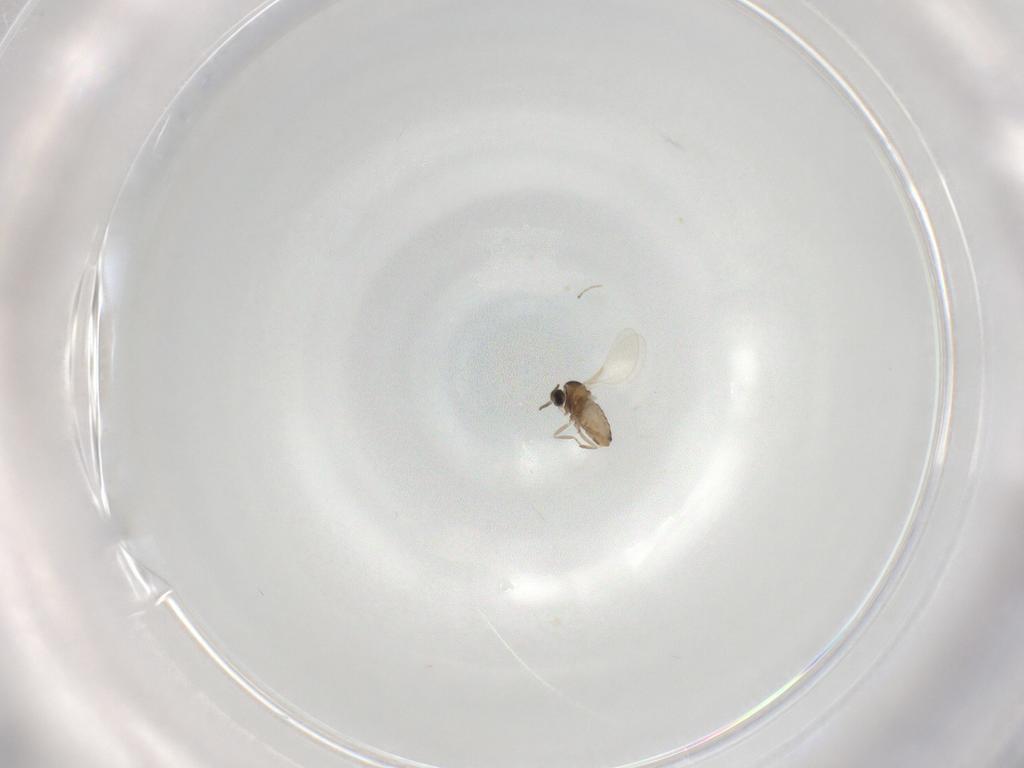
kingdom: Animalia
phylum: Arthropoda
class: Insecta
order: Diptera
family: Cecidomyiidae
